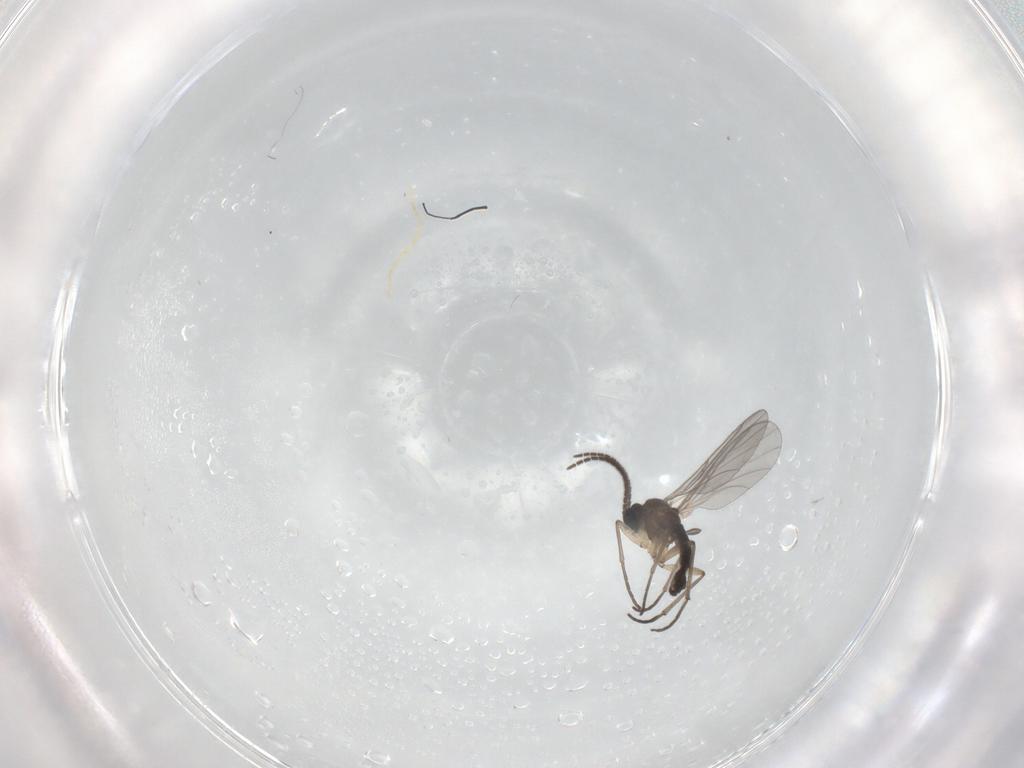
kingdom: Animalia
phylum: Arthropoda
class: Insecta
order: Diptera
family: Sciaridae
